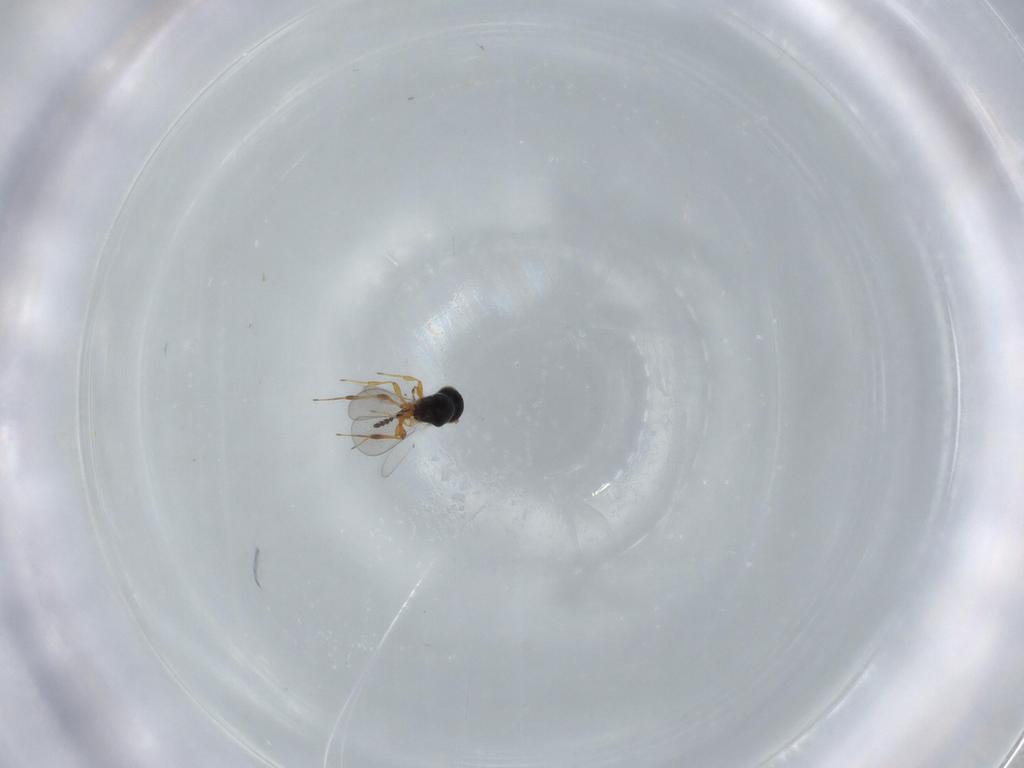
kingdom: Animalia
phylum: Arthropoda
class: Insecta
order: Hymenoptera
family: Platygastridae
